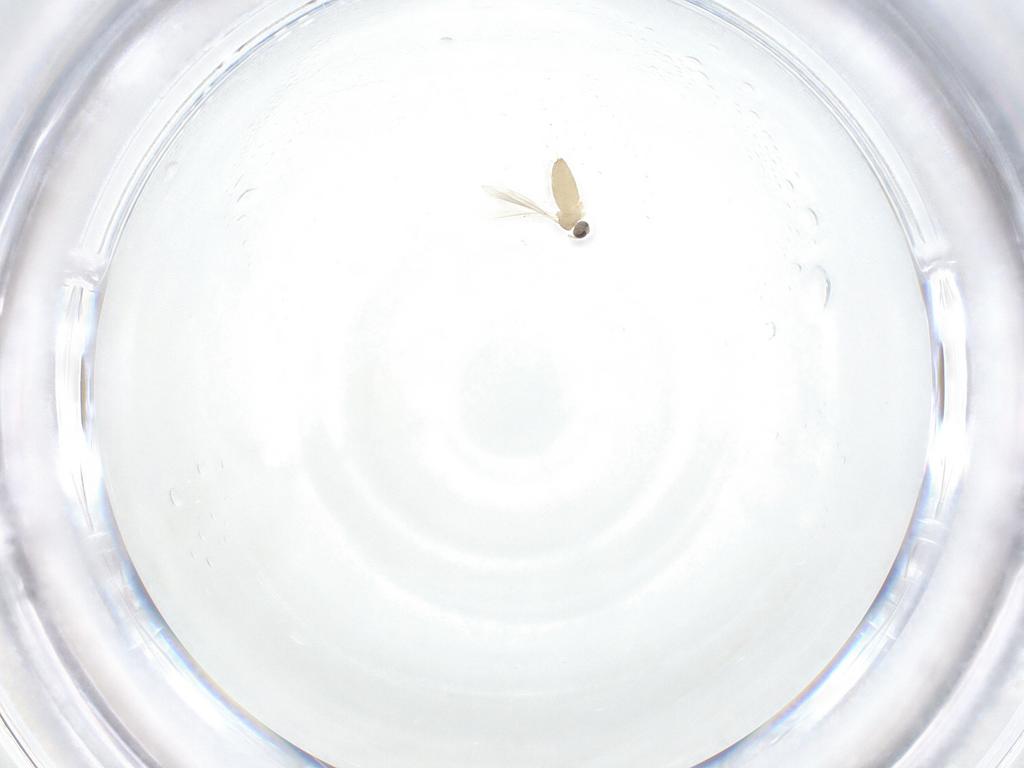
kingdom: Animalia
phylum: Arthropoda
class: Insecta
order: Diptera
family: Cecidomyiidae
